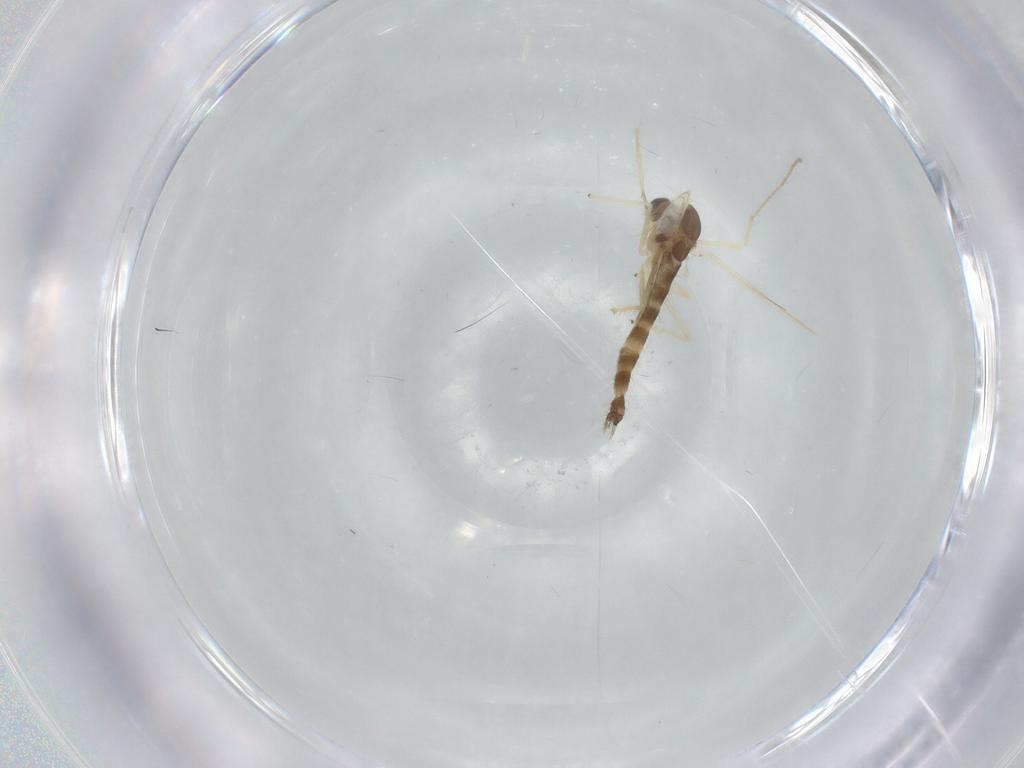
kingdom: Animalia
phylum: Arthropoda
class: Insecta
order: Diptera
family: Chironomidae
